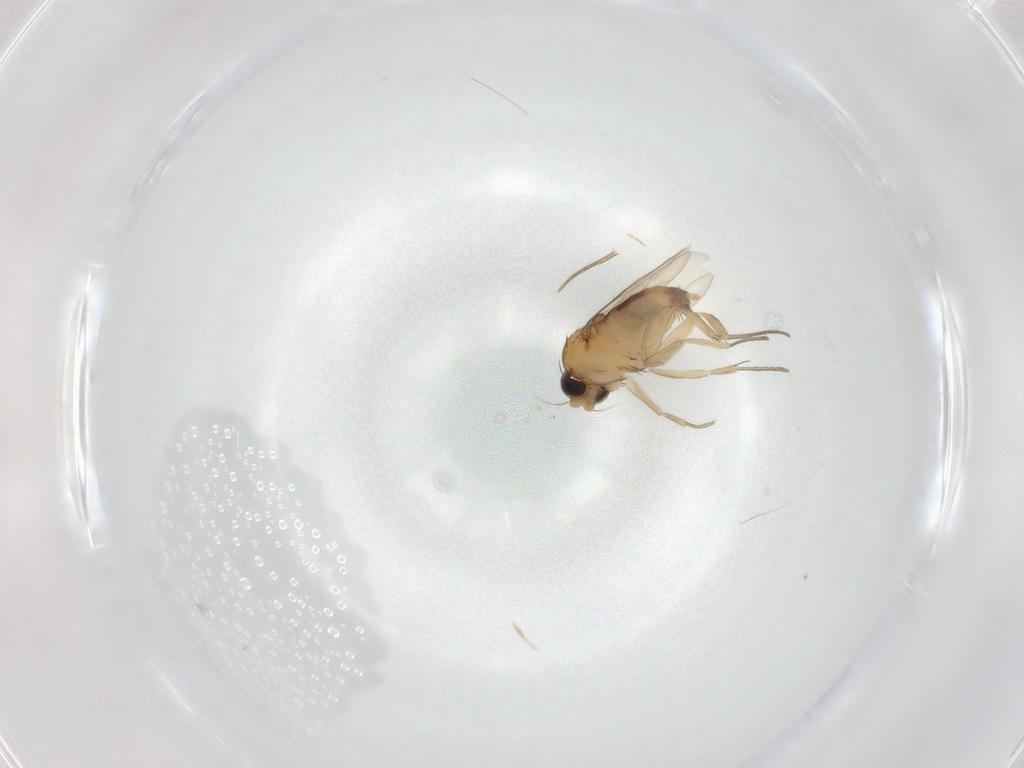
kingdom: Animalia
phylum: Arthropoda
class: Insecta
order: Diptera
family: Phoridae
